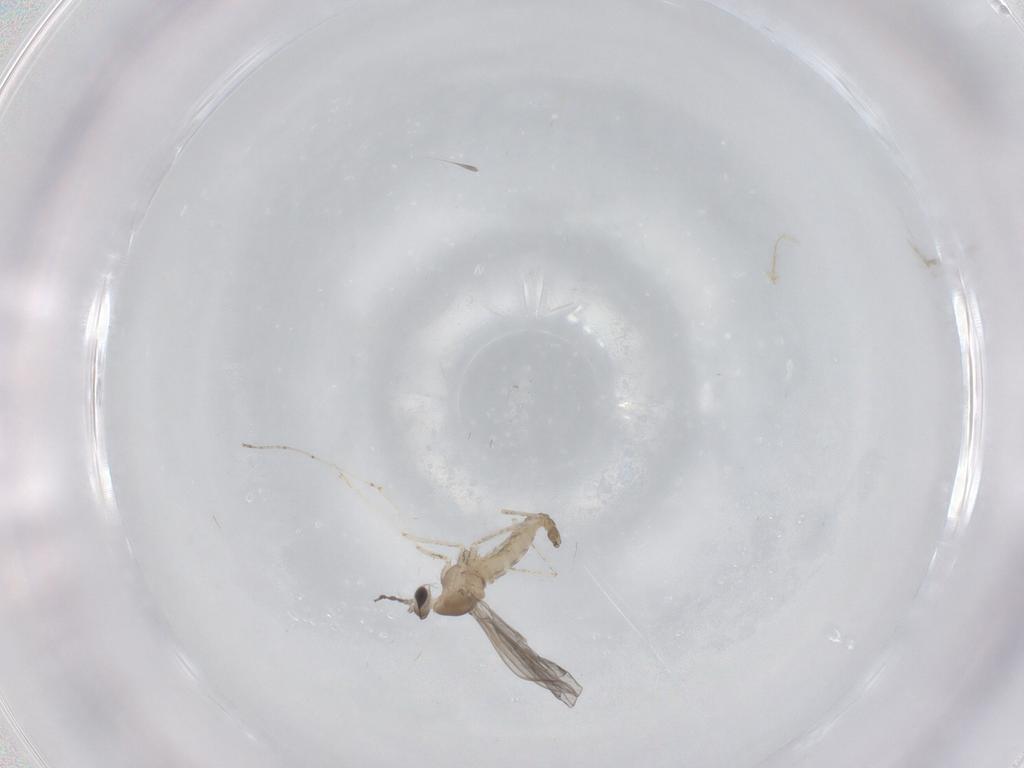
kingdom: Animalia
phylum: Arthropoda
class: Insecta
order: Diptera
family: Cecidomyiidae
